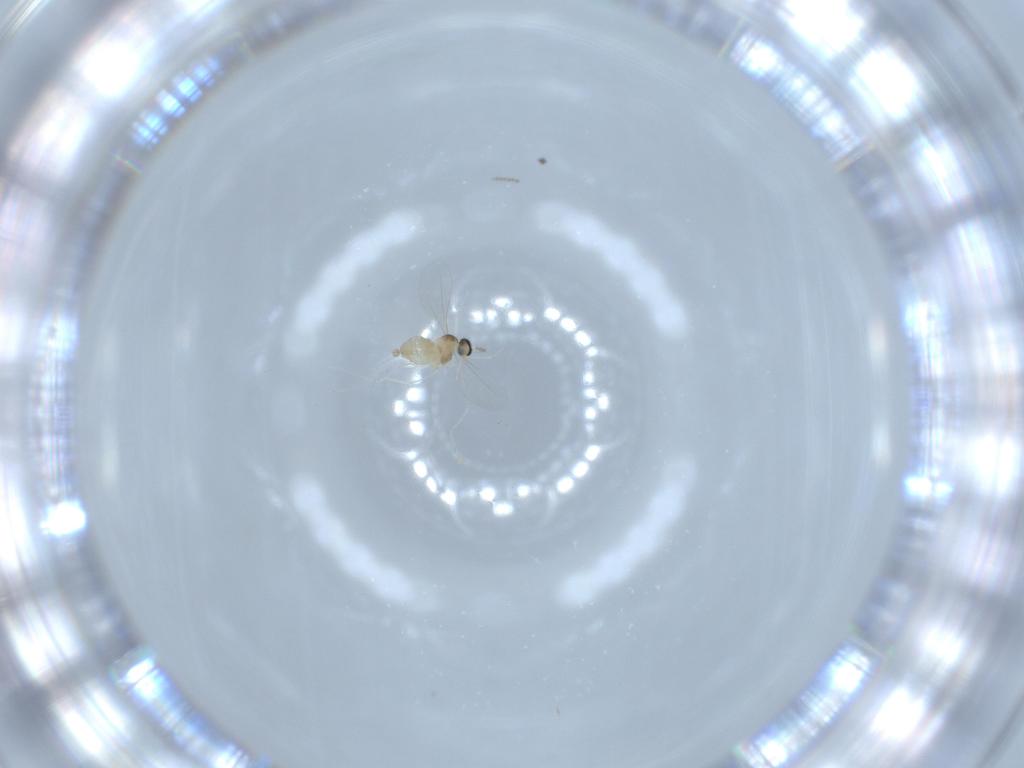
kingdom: Animalia
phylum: Arthropoda
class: Insecta
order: Diptera
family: Cecidomyiidae
